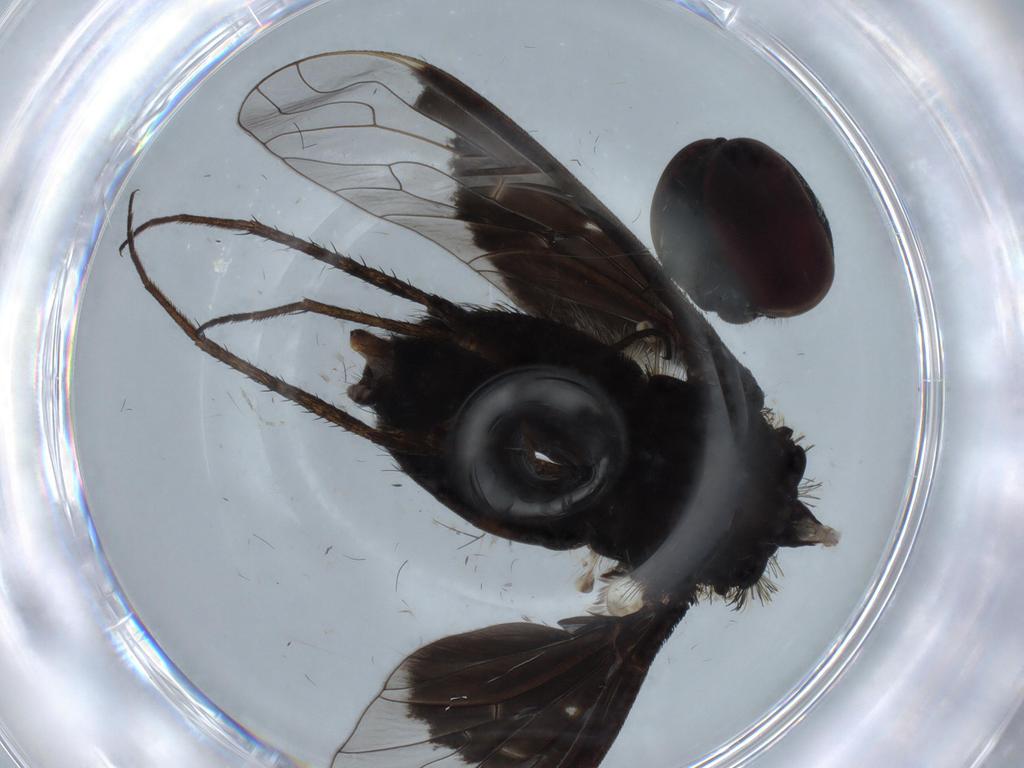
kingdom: Animalia
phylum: Arthropoda
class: Insecta
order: Diptera
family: Bombyliidae
